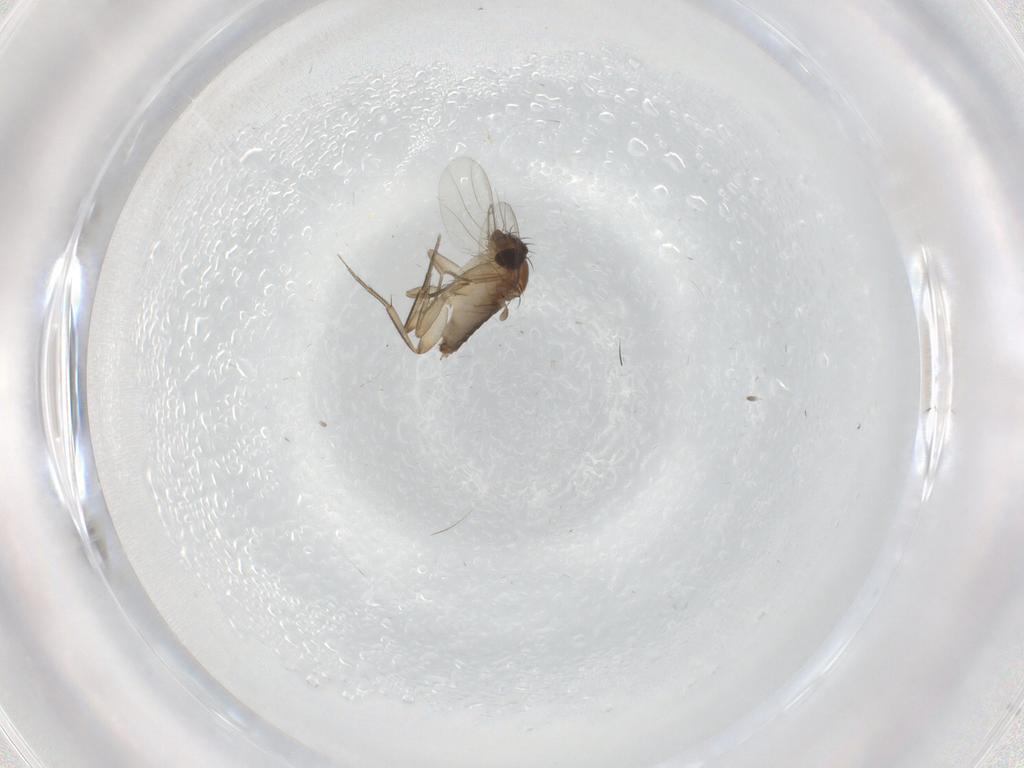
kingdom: Animalia
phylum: Arthropoda
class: Insecta
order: Diptera
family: Phoridae
